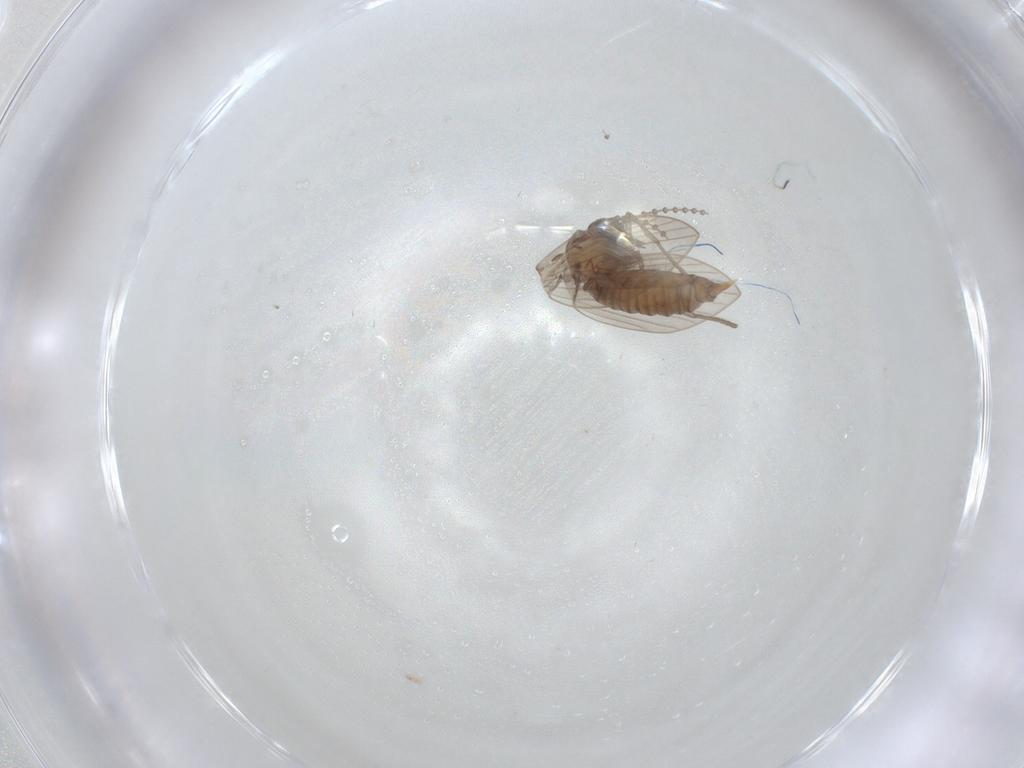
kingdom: Animalia
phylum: Arthropoda
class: Insecta
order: Diptera
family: Psychodidae
